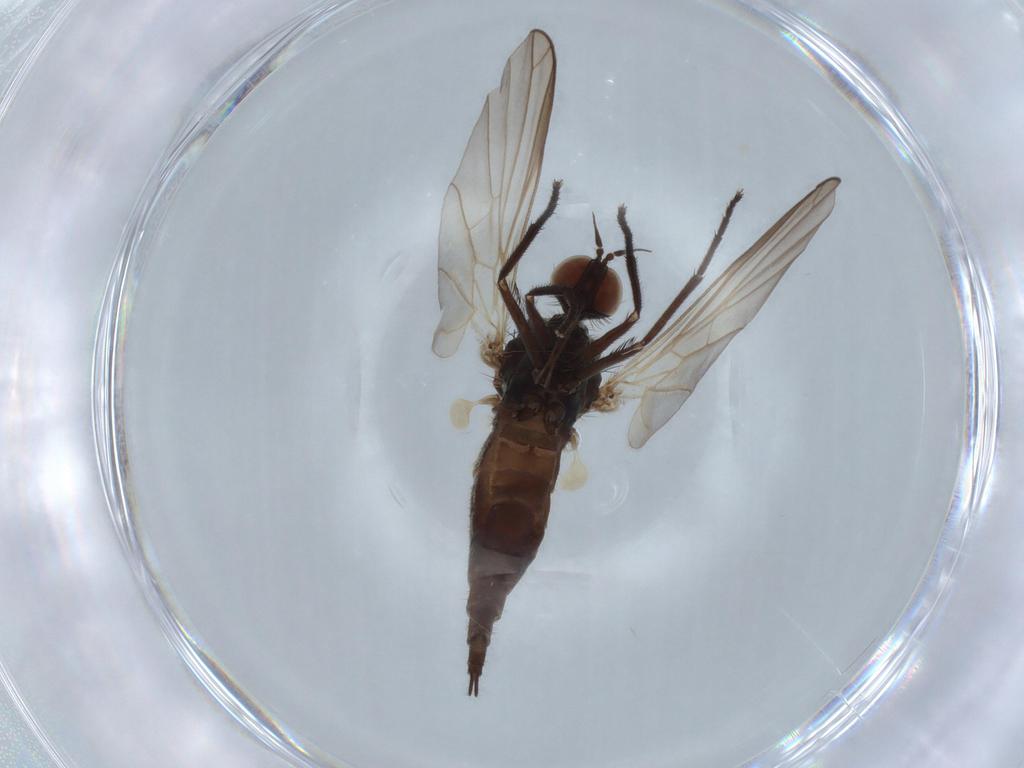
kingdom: Animalia
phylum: Arthropoda
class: Insecta
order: Diptera
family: Empididae
